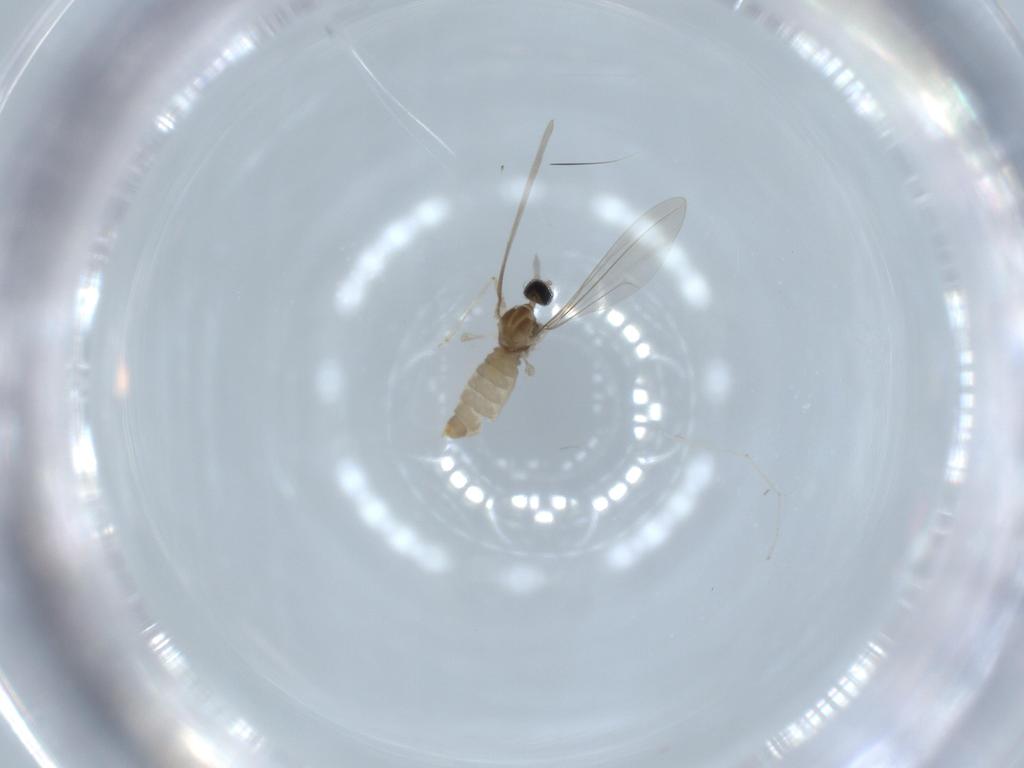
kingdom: Animalia
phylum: Arthropoda
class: Insecta
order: Diptera
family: Cecidomyiidae
